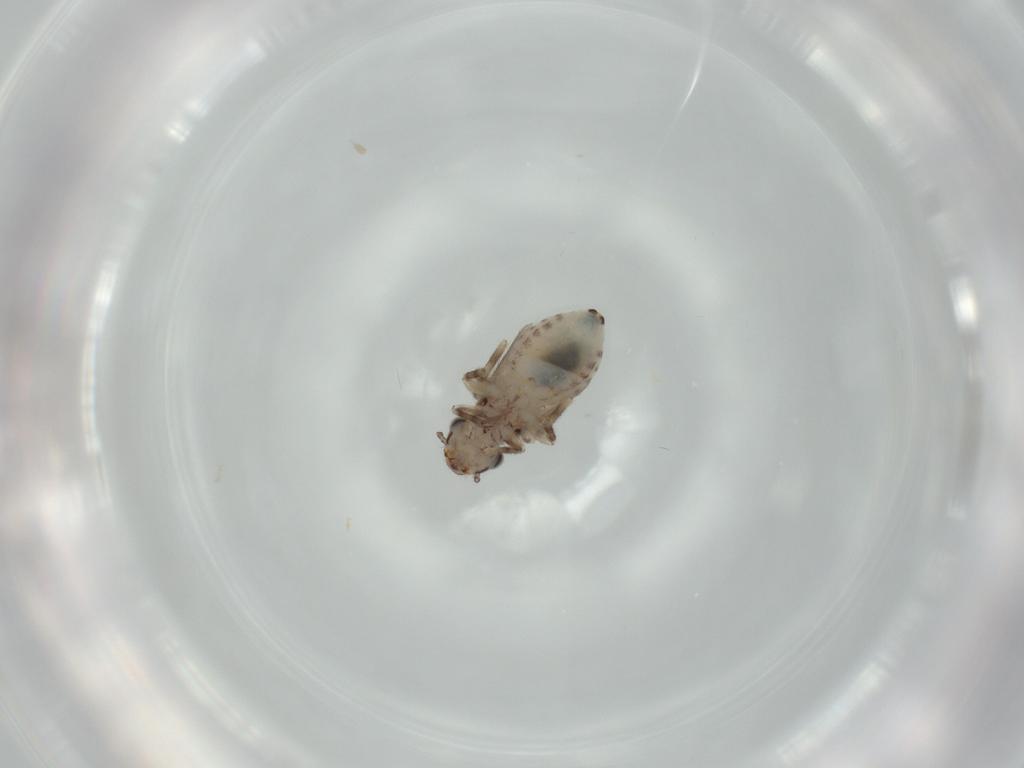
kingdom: Animalia
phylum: Arthropoda
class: Insecta
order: Psocodea
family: Lepidopsocidae
